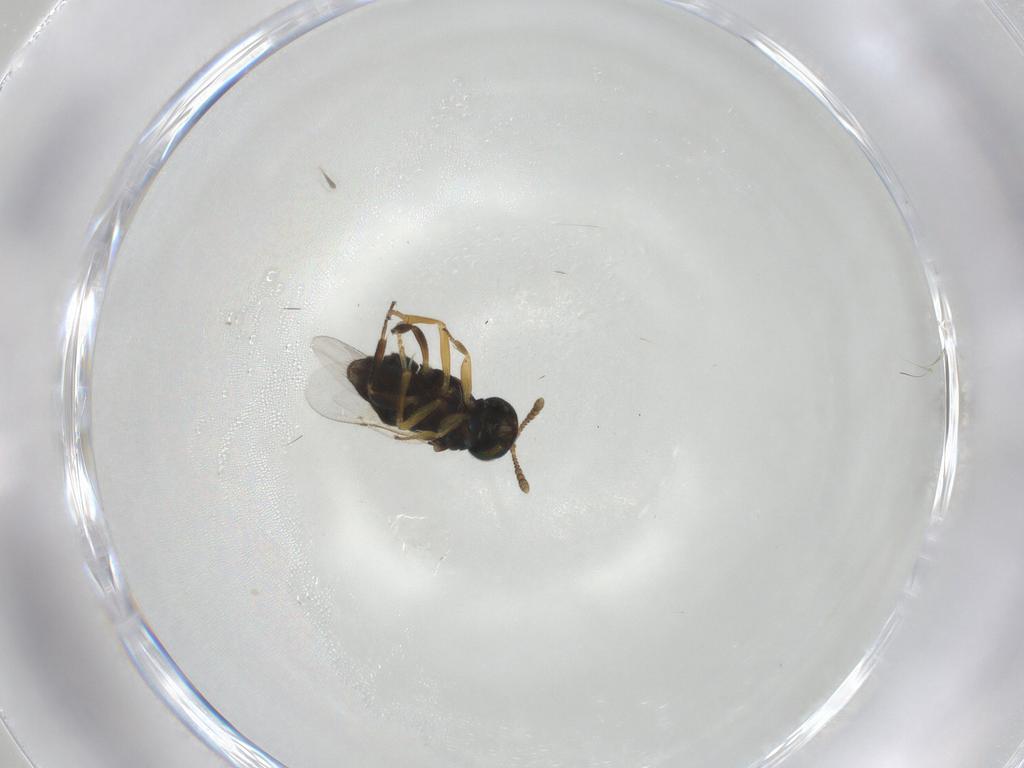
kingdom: Animalia
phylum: Arthropoda
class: Insecta
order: Hymenoptera
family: Encyrtidae
